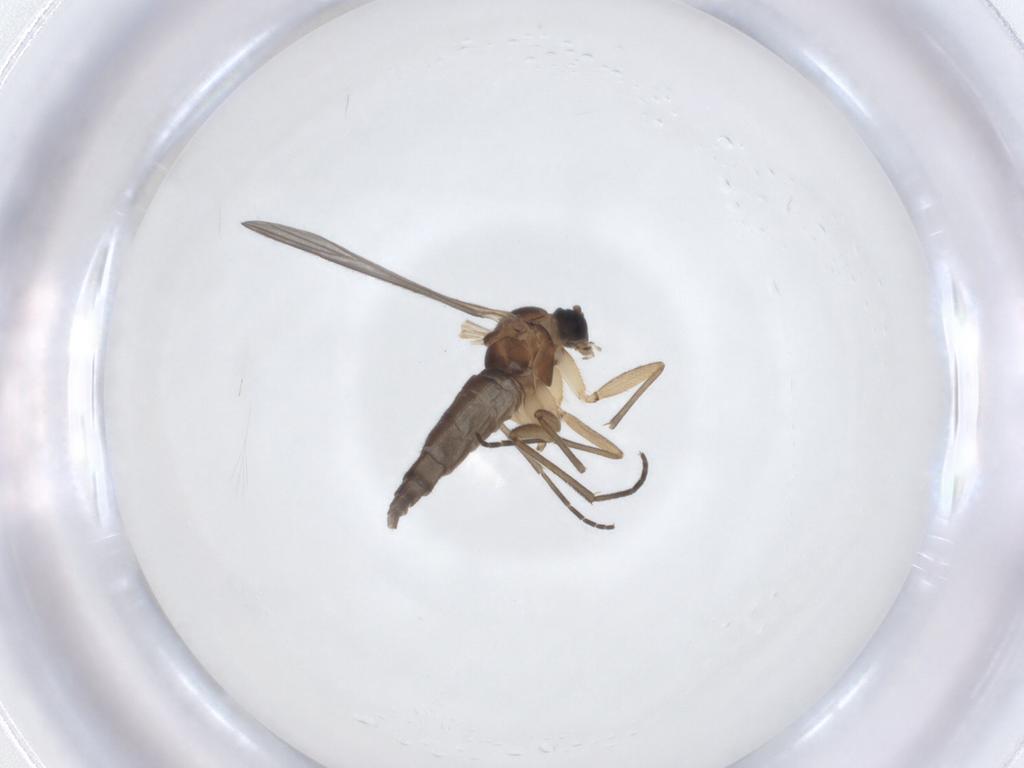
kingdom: Animalia
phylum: Arthropoda
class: Insecta
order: Diptera
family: Sciaridae
